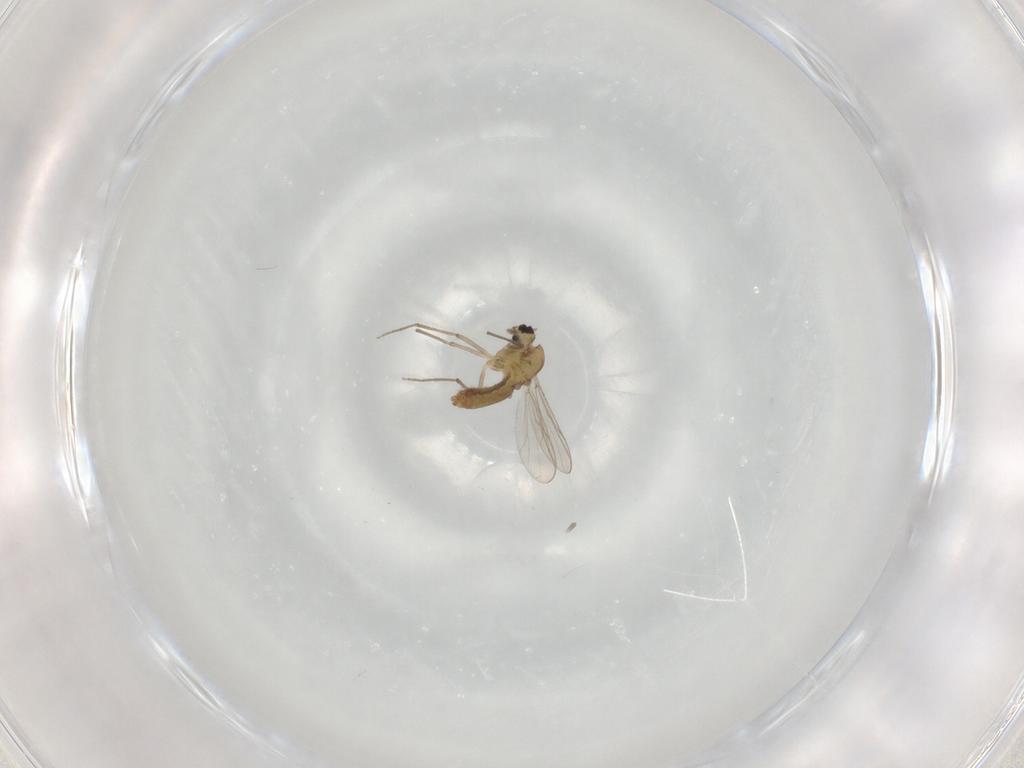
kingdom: Animalia
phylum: Arthropoda
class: Insecta
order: Diptera
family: Chironomidae
